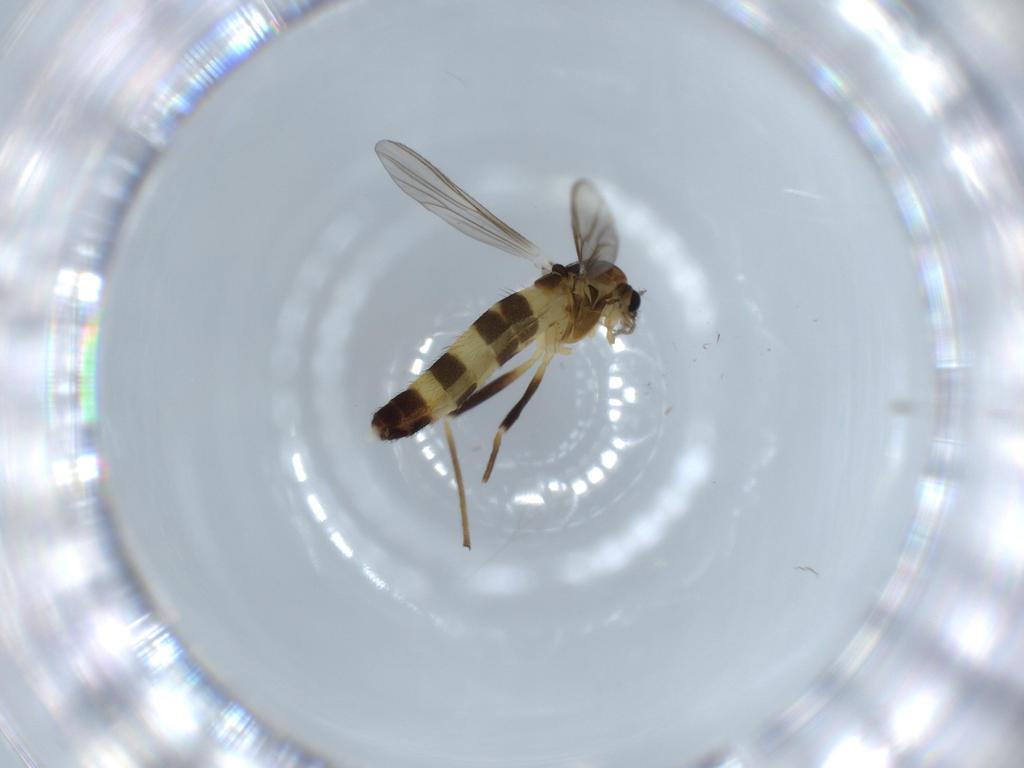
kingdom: Animalia
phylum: Arthropoda
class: Insecta
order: Diptera
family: Chironomidae
